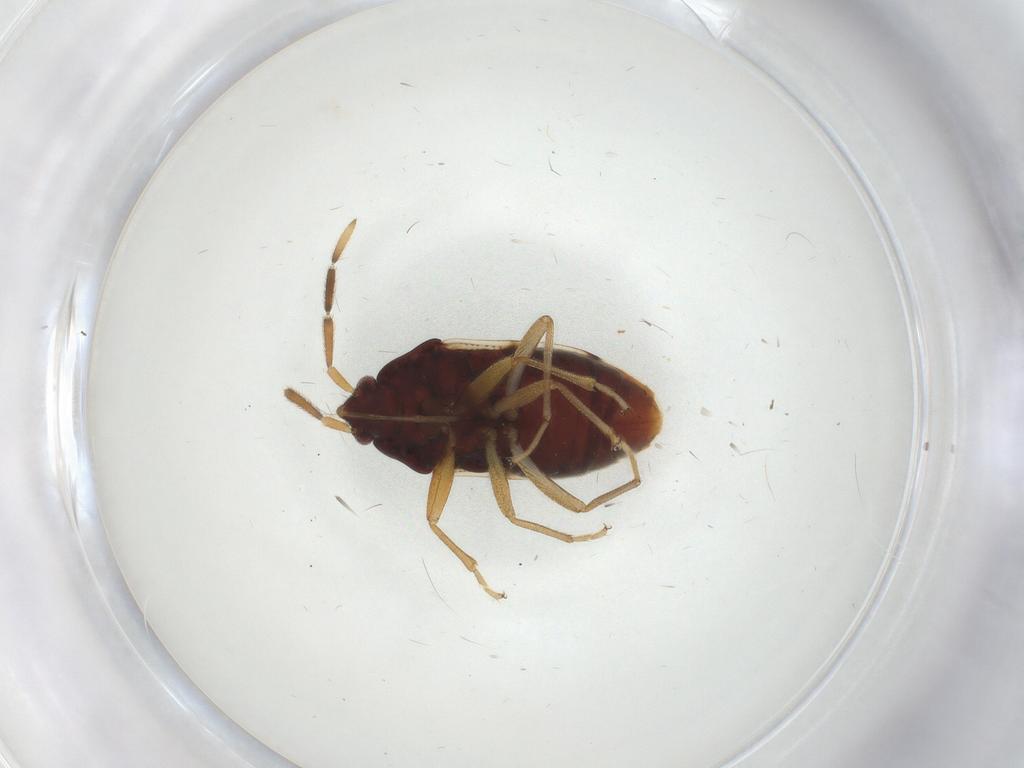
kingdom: Animalia
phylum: Arthropoda
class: Insecta
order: Hemiptera
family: Rhyparochromidae
